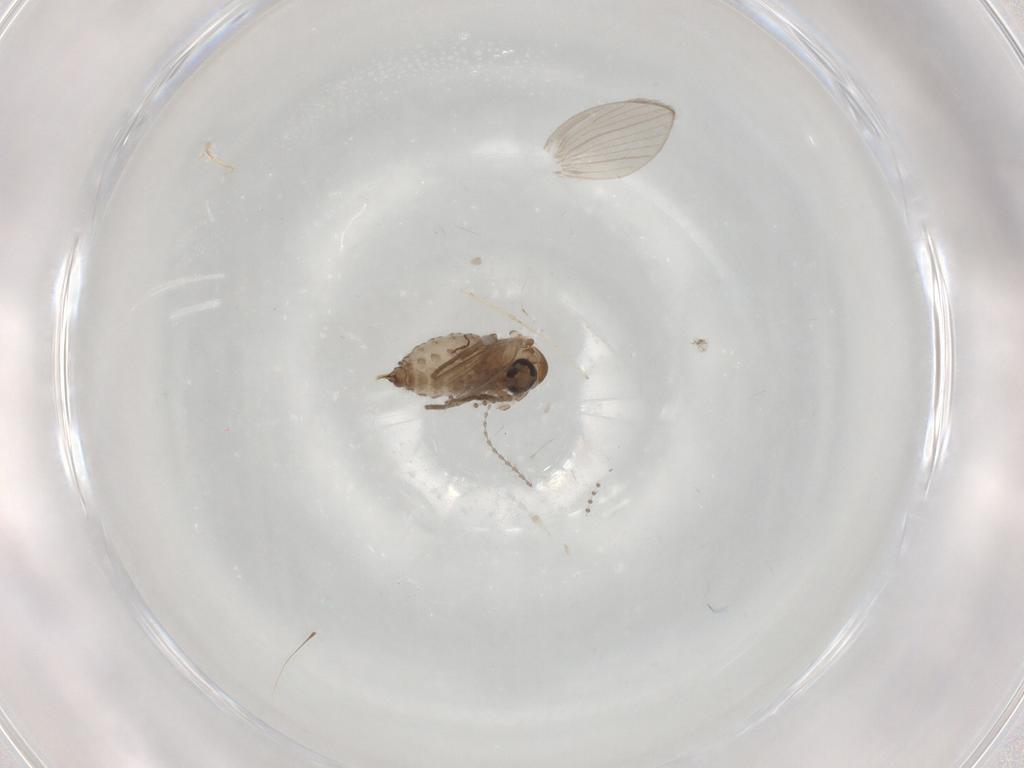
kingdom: Animalia
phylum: Arthropoda
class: Insecta
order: Diptera
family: Psychodidae
